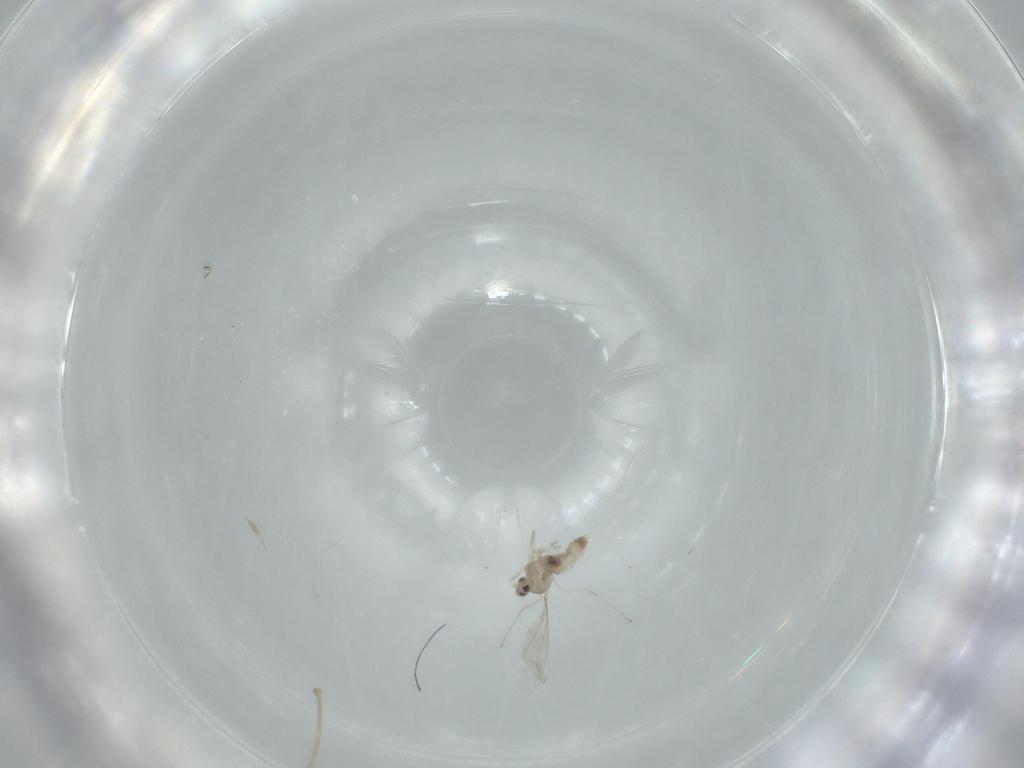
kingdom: Animalia
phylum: Arthropoda
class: Insecta
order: Diptera
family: Cecidomyiidae
